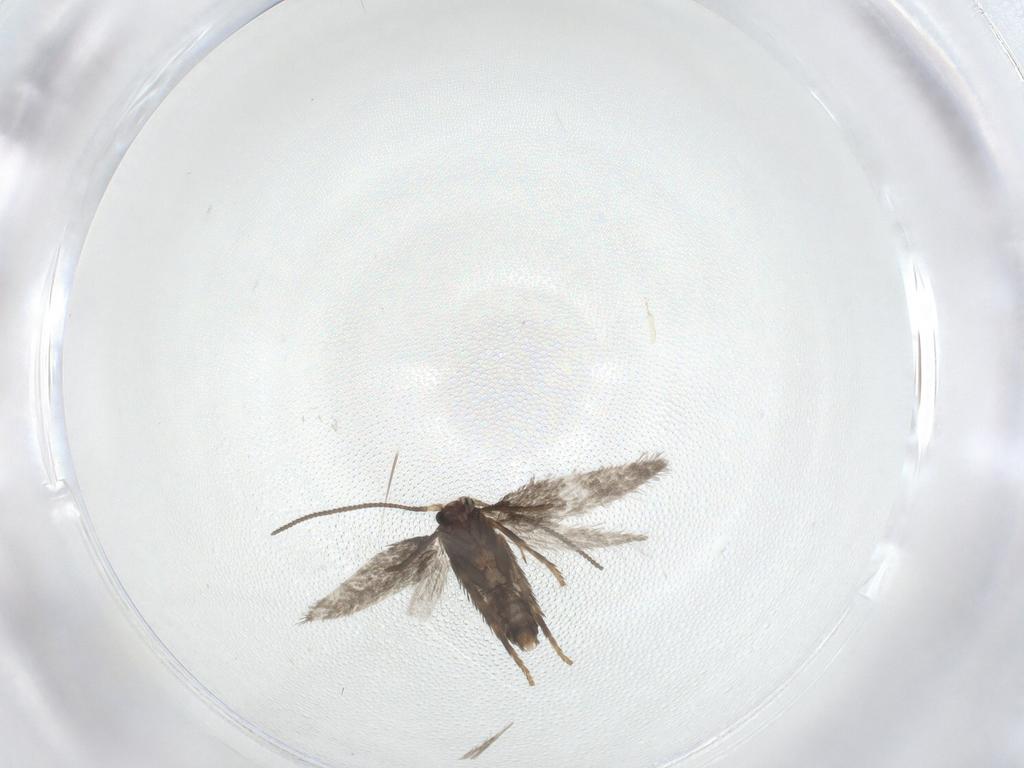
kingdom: Animalia
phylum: Arthropoda
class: Insecta
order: Lepidoptera
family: Nepticulidae
